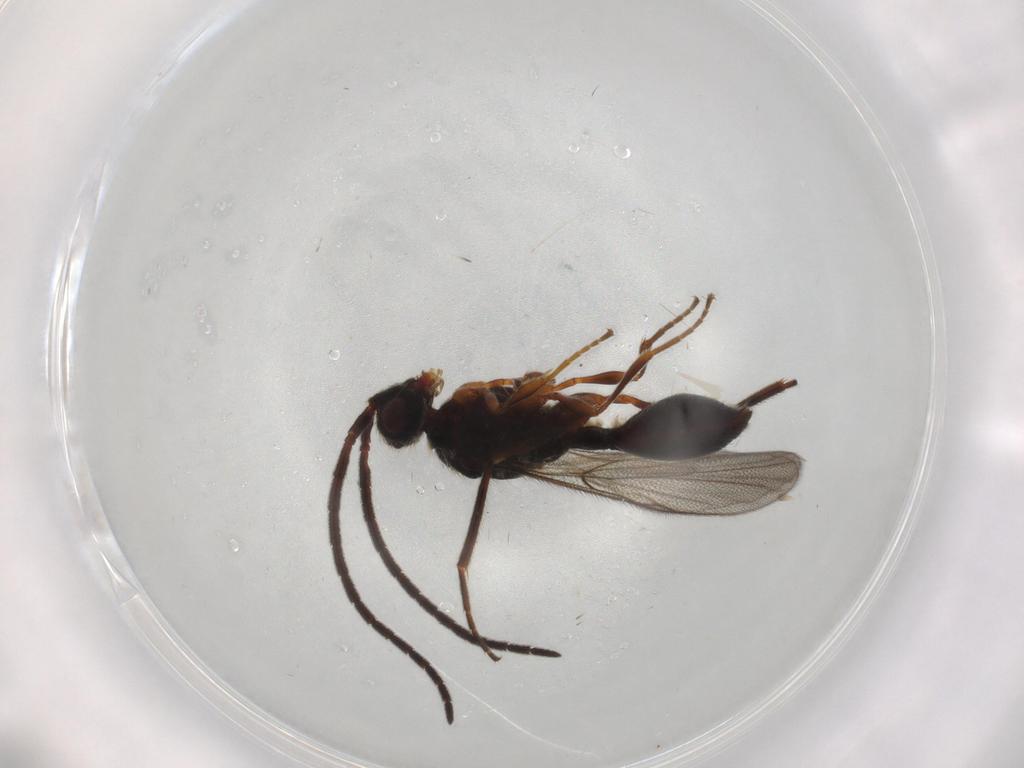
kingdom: Animalia
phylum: Arthropoda
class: Insecta
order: Hymenoptera
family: Diapriidae
